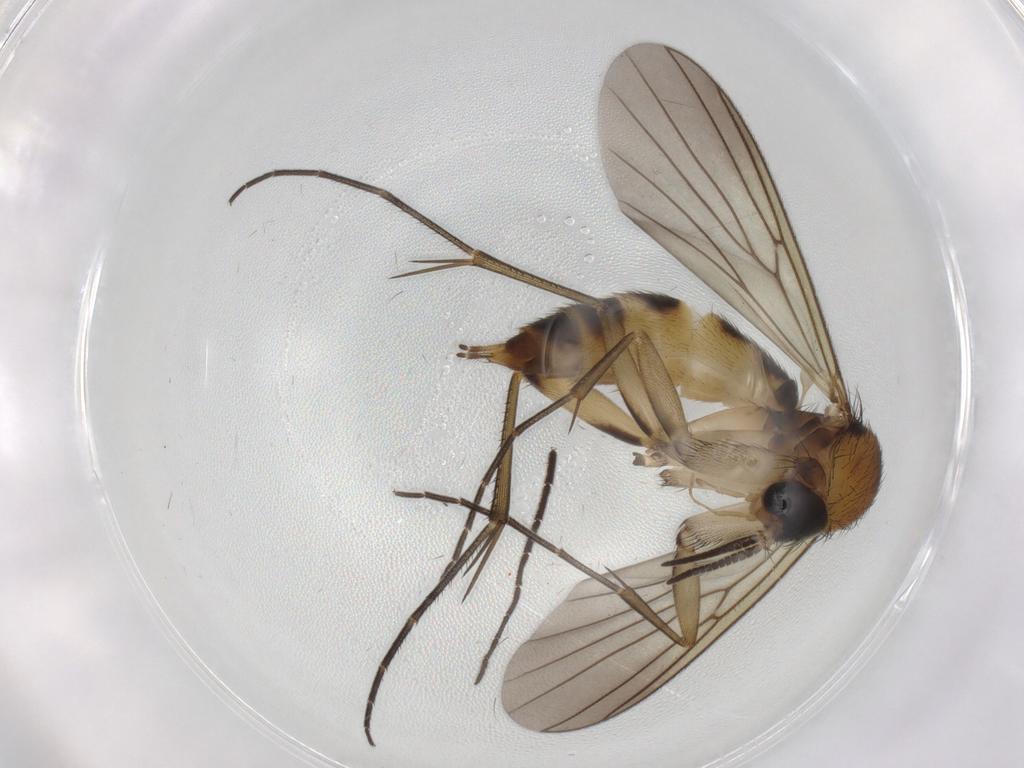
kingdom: Animalia
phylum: Arthropoda
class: Insecta
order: Diptera
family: Mycetophilidae
